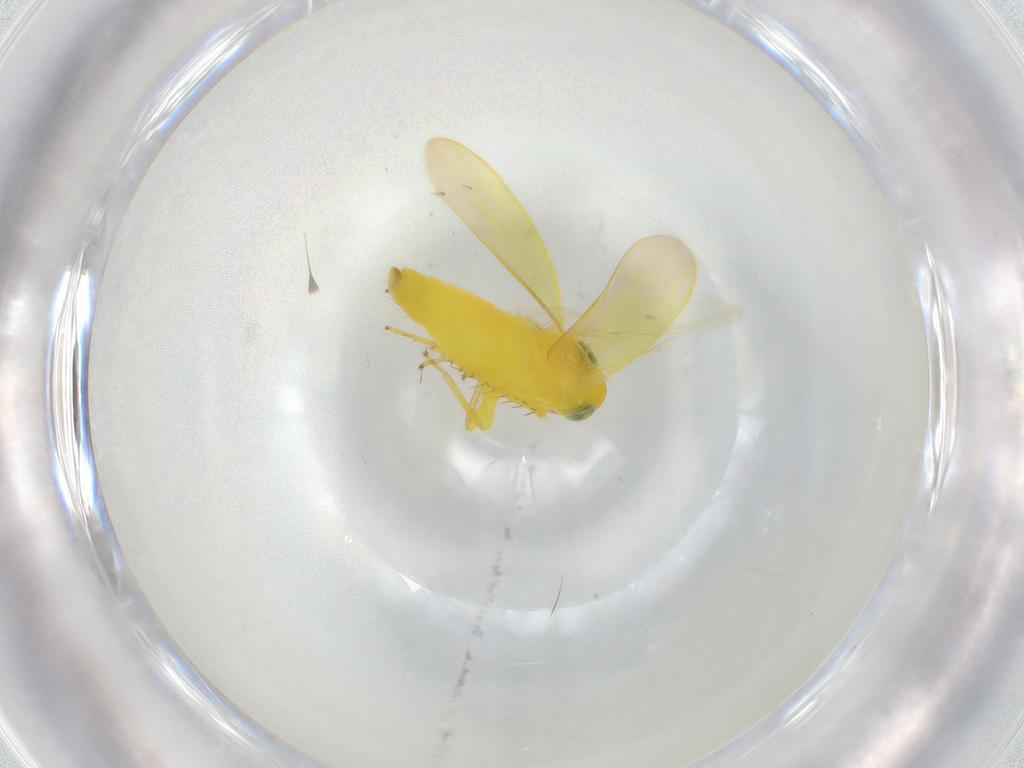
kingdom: Animalia
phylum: Arthropoda
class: Insecta
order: Hemiptera
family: Cicadellidae
